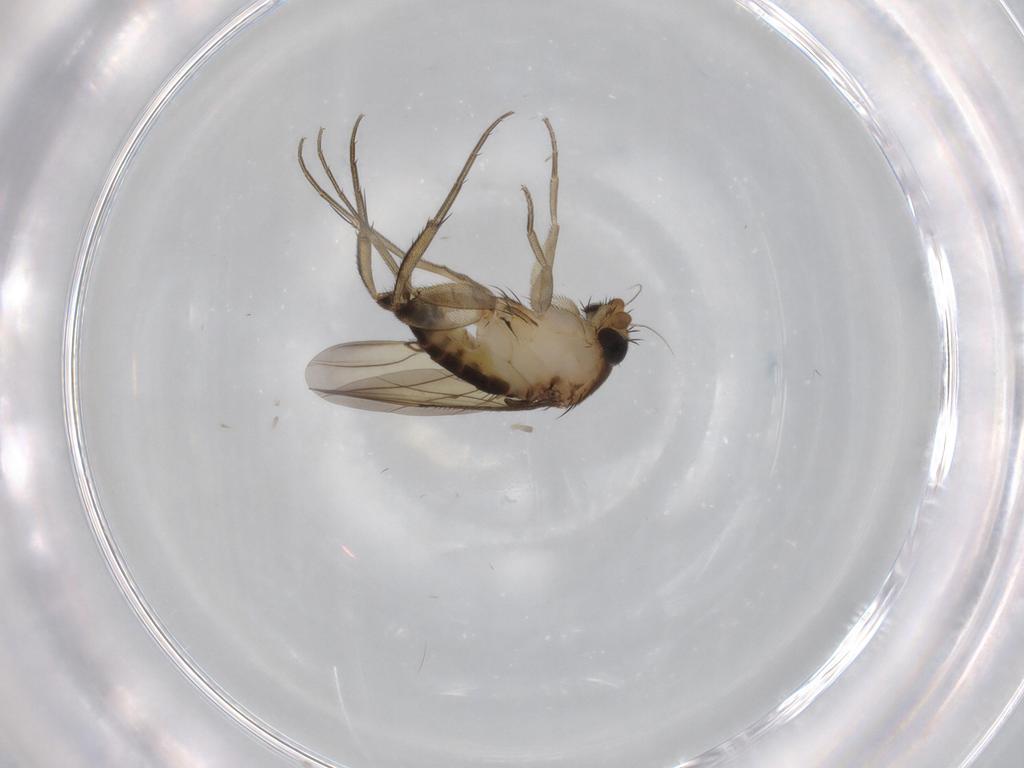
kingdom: Animalia
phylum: Arthropoda
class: Insecta
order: Diptera
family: Phoridae
